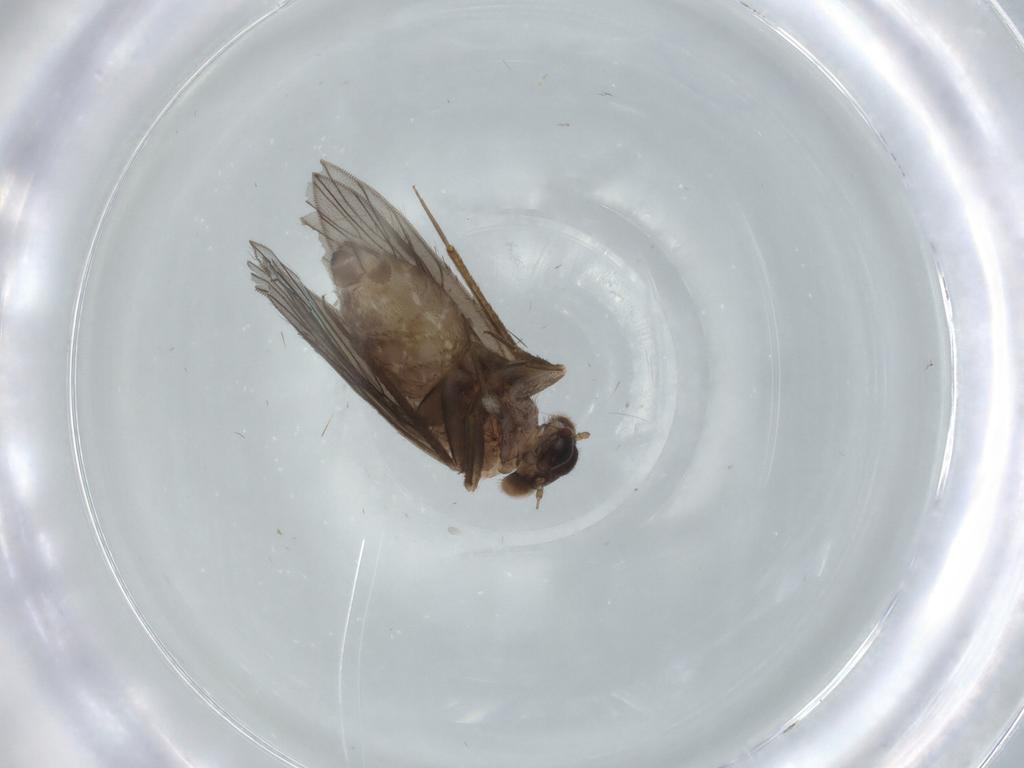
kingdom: Animalia
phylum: Arthropoda
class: Insecta
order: Psocodea
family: Lepidopsocidae
